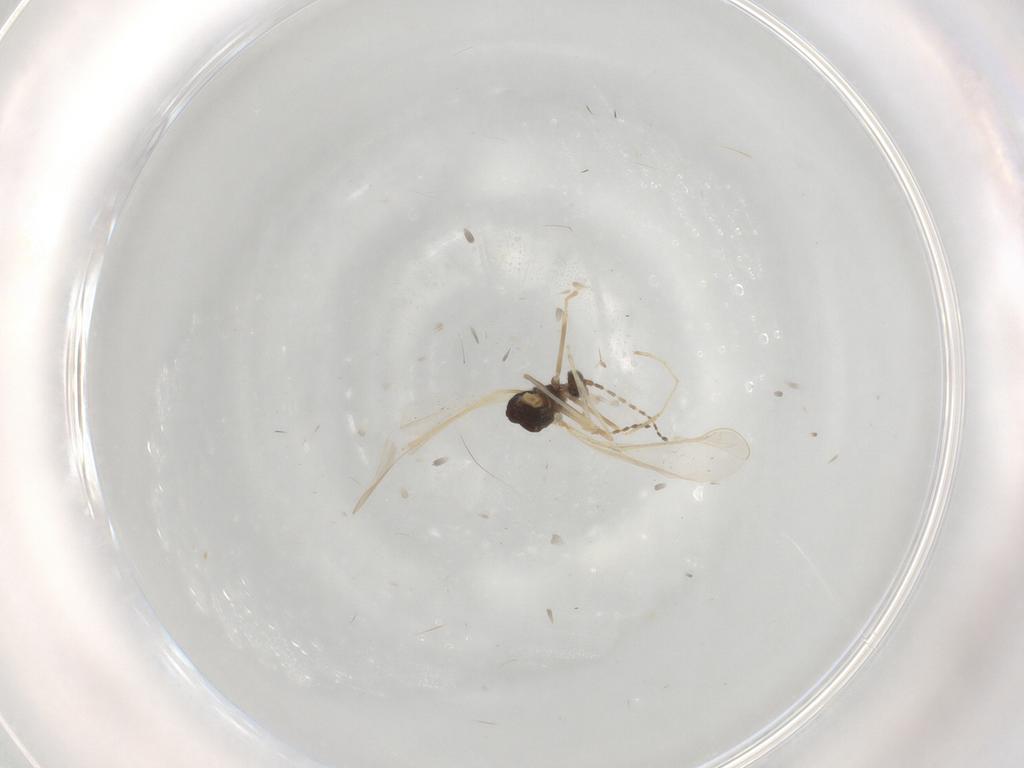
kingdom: Animalia
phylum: Arthropoda
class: Insecta
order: Diptera
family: Cecidomyiidae
